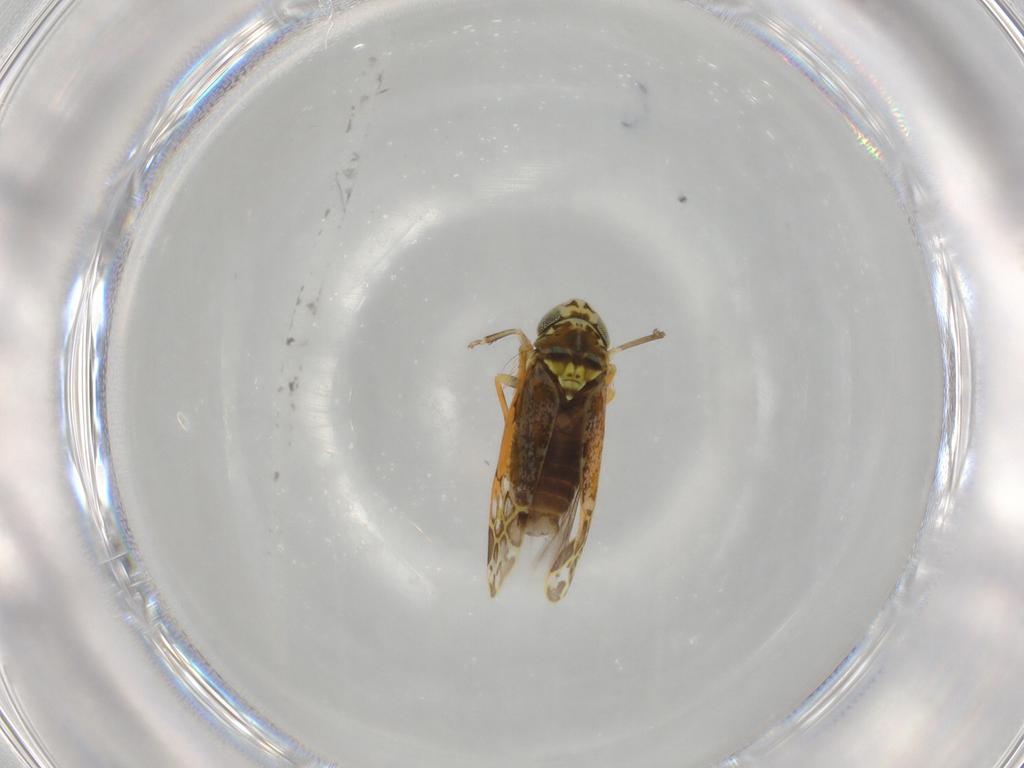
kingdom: Animalia
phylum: Arthropoda
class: Insecta
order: Hemiptera
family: Cicadellidae
